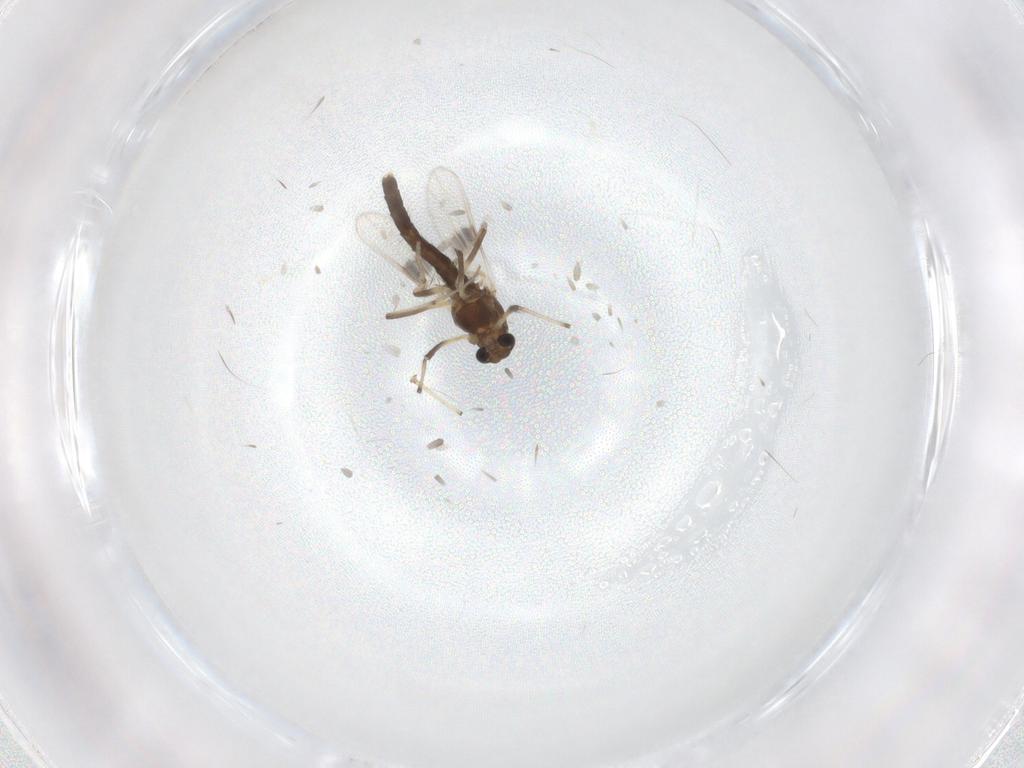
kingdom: Animalia
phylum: Arthropoda
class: Insecta
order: Diptera
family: Chironomidae
